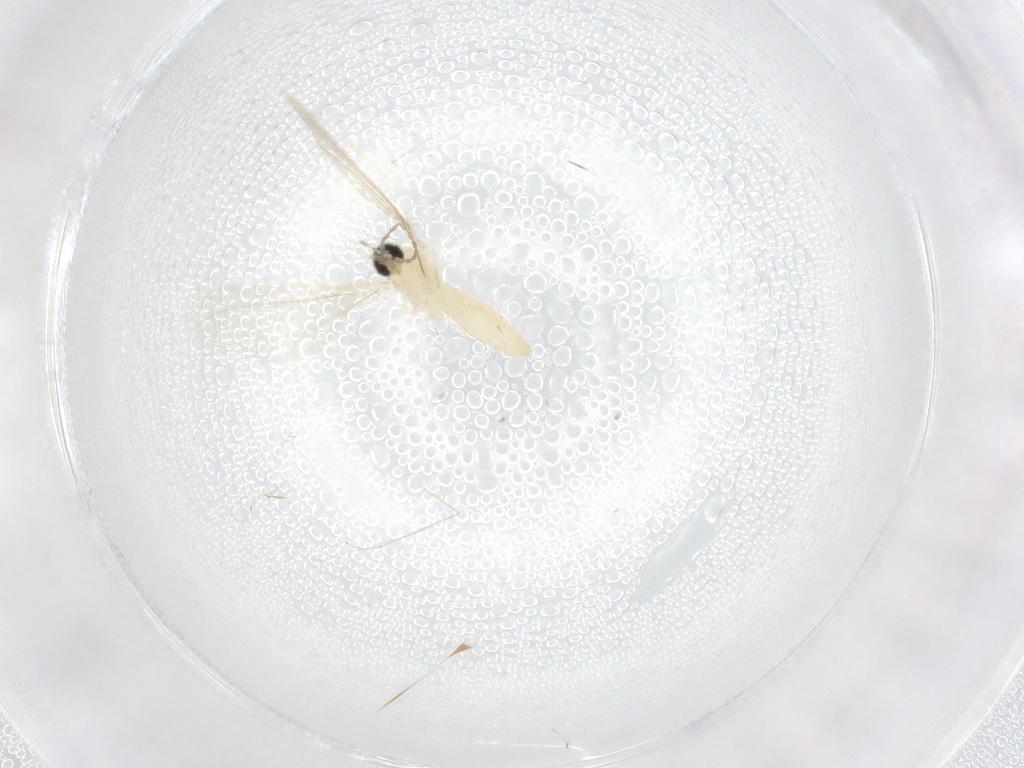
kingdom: Animalia
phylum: Arthropoda
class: Insecta
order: Diptera
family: Cecidomyiidae
